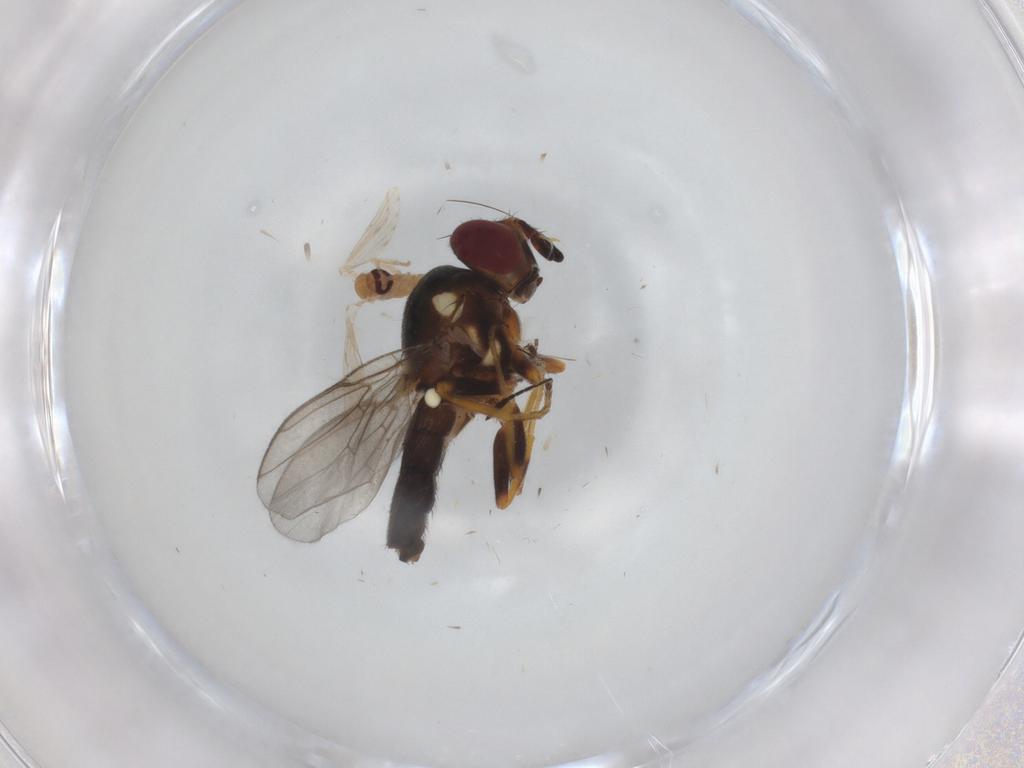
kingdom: Animalia
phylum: Arthropoda
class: Insecta
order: Diptera
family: Chloropidae
